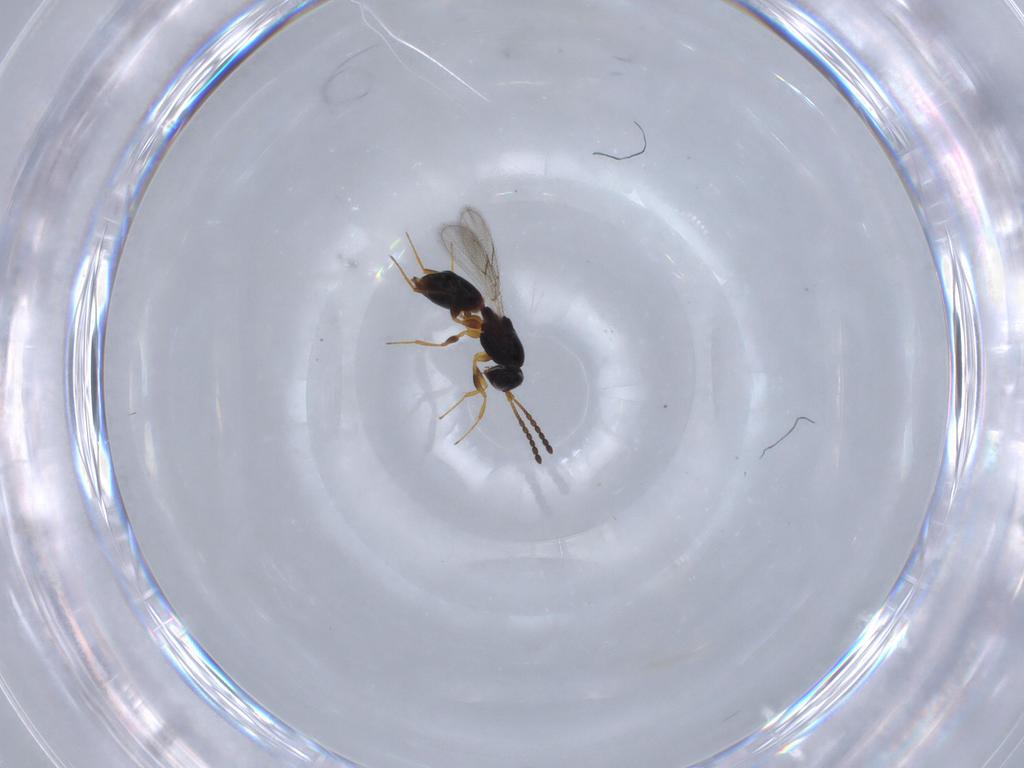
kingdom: Animalia
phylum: Arthropoda
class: Insecta
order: Hymenoptera
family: Figitidae
